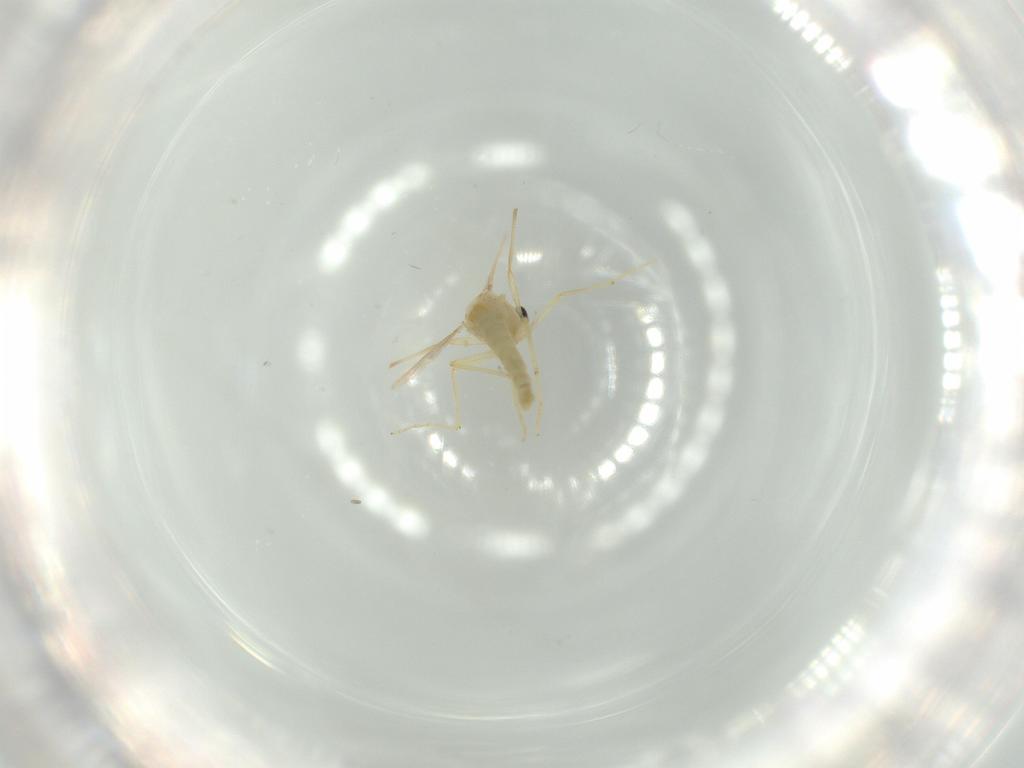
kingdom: Animalia
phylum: Arthropoda
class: Insecta
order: Diptera
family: Chironomidae
